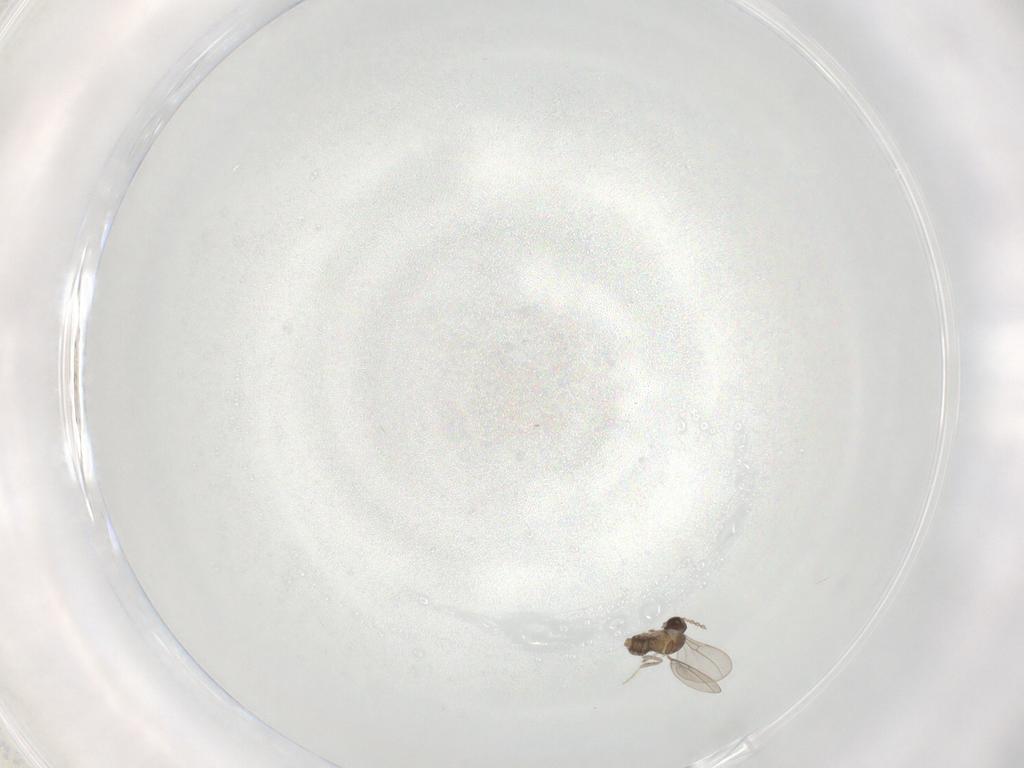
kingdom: Animalia
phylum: Arthropoda
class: Insecta
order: Diptera
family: Cecidomyiidae
